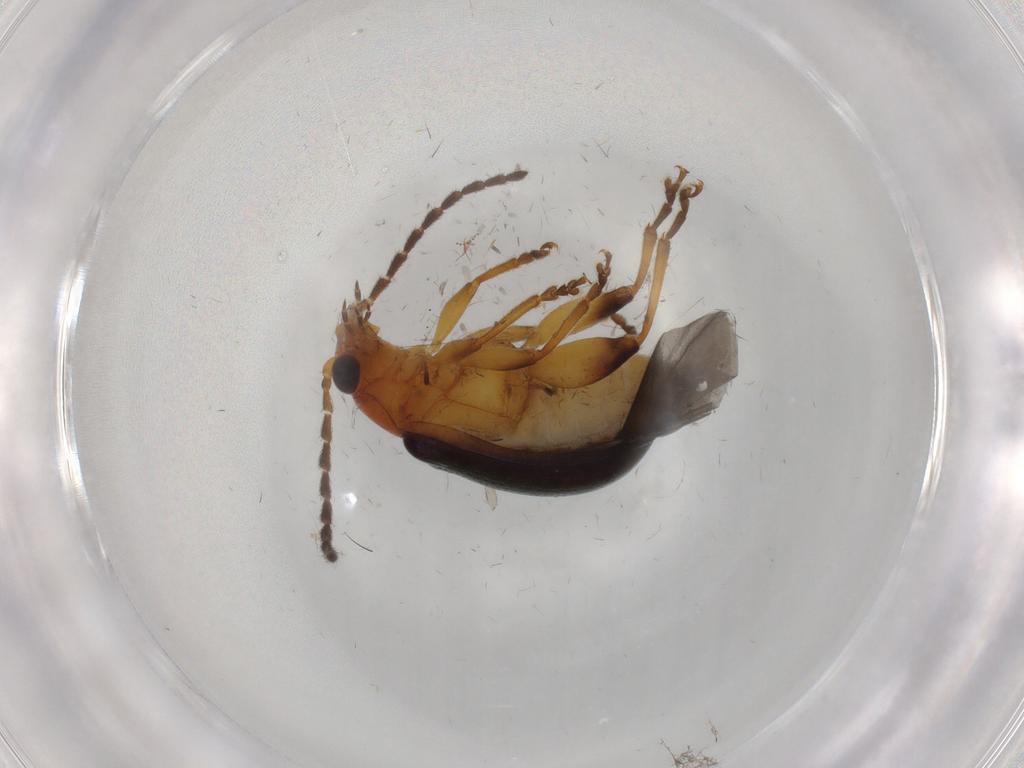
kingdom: Animalia
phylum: Arthropoda
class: Insecta
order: Coleoptera
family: Chrysomelidae
